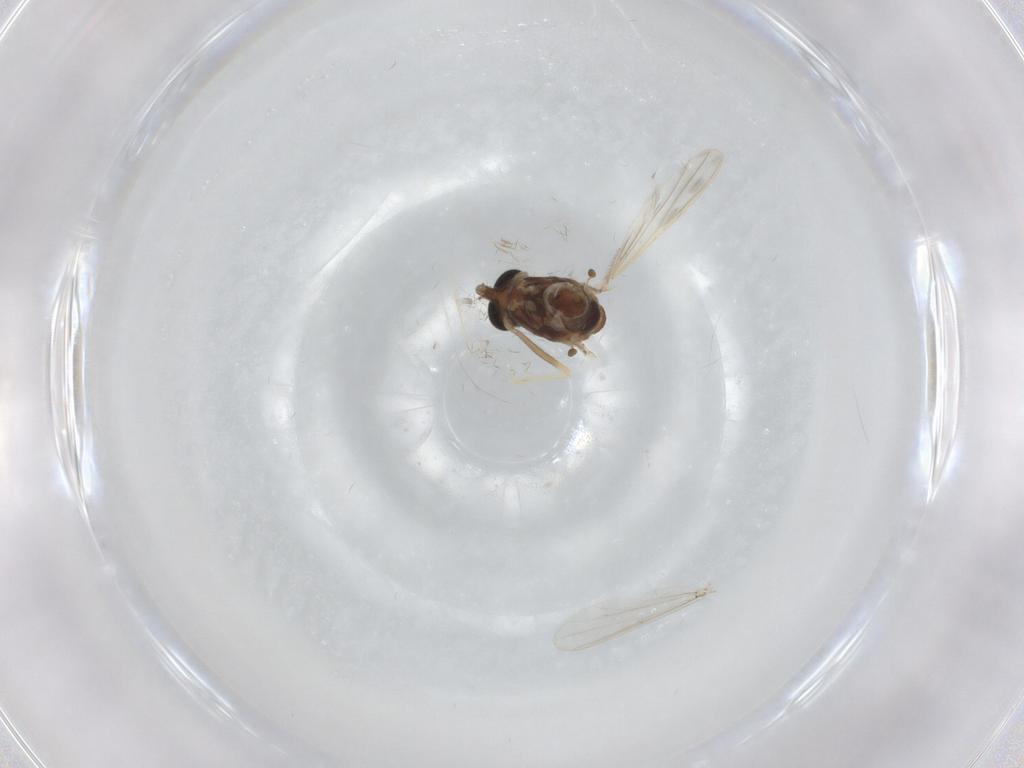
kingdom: Animalia
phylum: Arthropoda
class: Insecta
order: Diptera
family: Chironomidae
